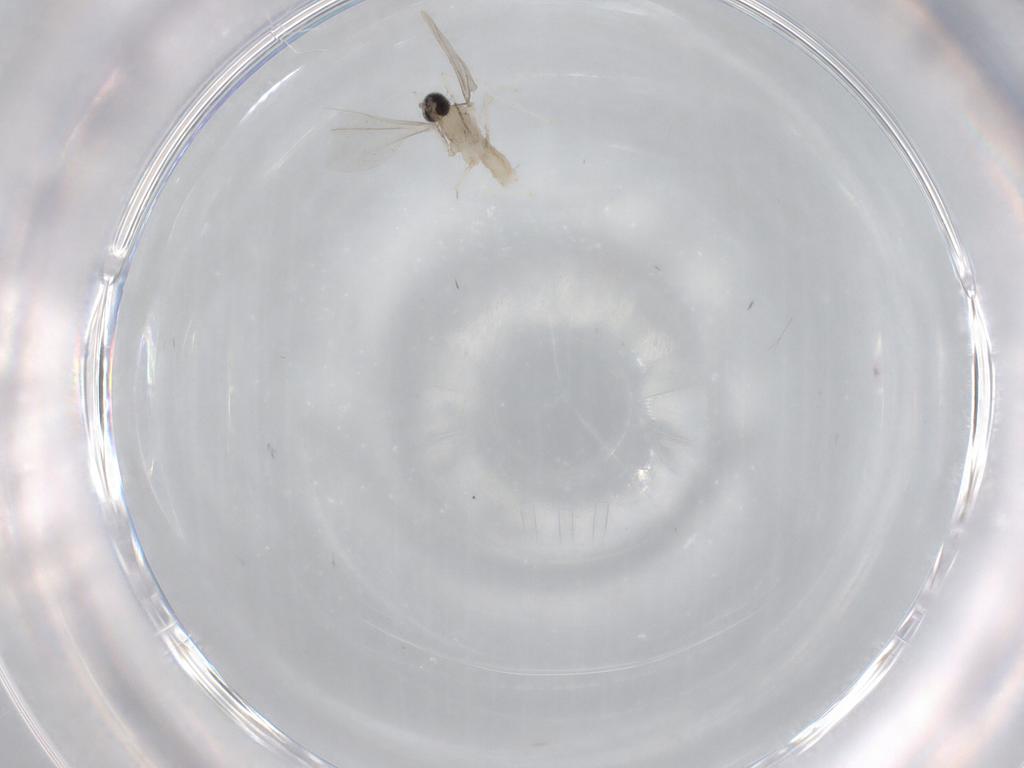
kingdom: Animalia
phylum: Arthropoda
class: Insecta
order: Diptera
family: Cecidomyiidae
